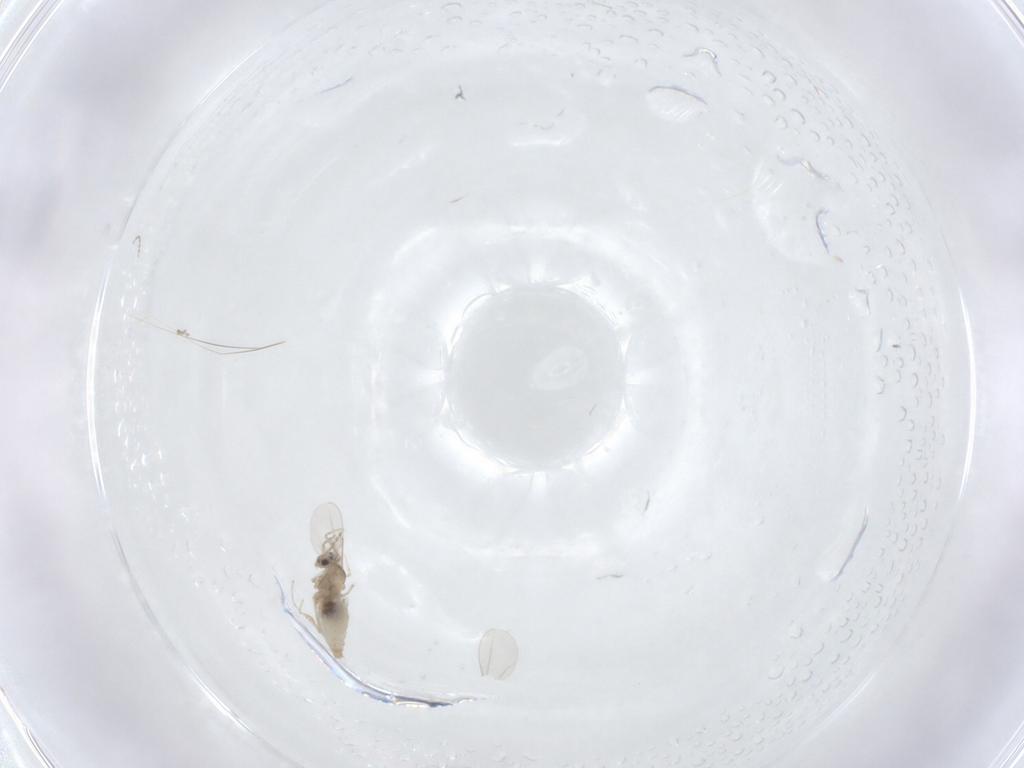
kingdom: Animalia
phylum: Arthropoda
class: Insecta
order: Diptera
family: Cecidomyiidae
